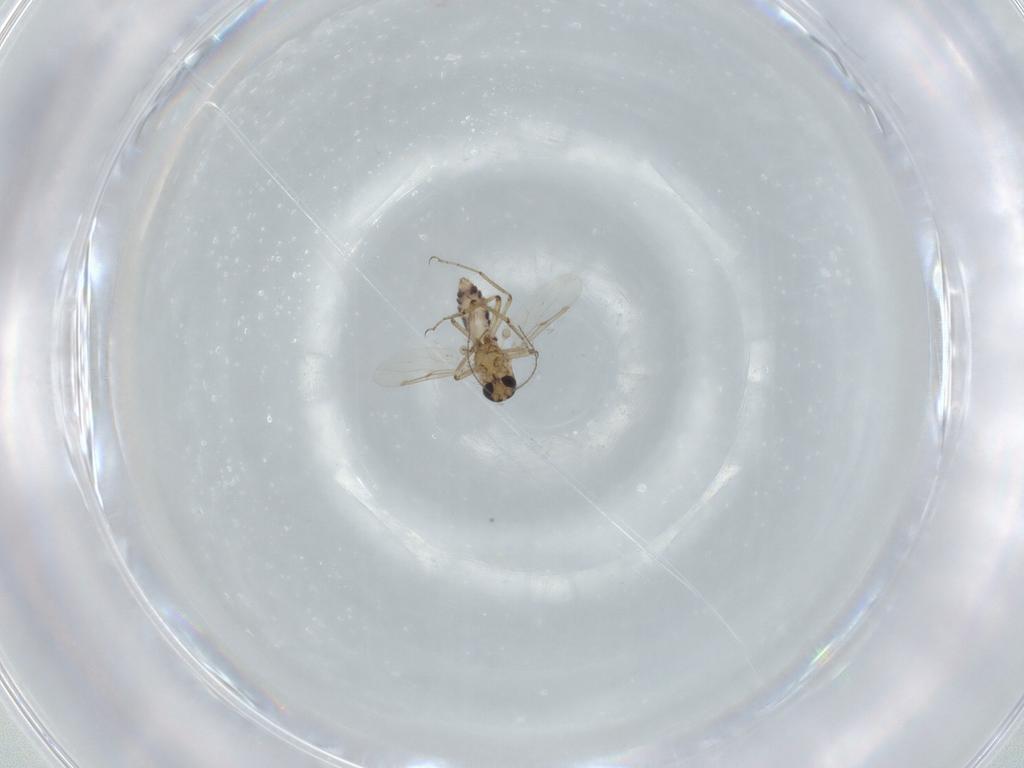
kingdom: Animalia
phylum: Arthropoda
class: Insecta
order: Diptera
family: Ceratopogonidae
